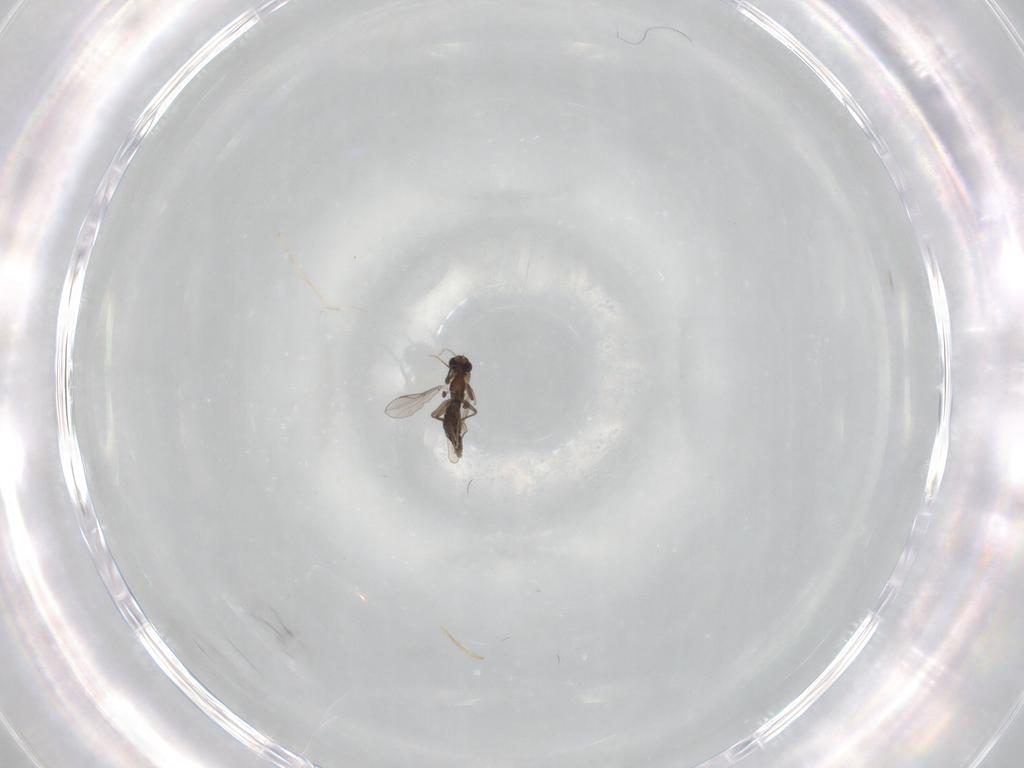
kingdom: Animalia
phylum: Arthropoda
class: Insecta
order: Diptera
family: Chironomidae
